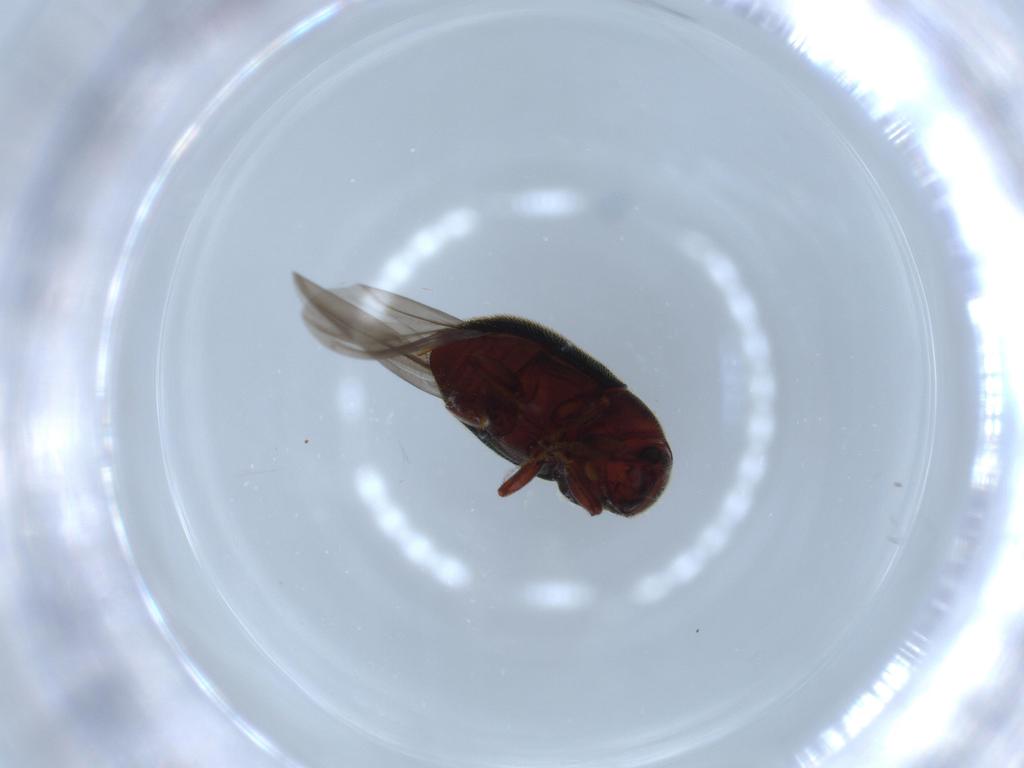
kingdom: Animalia
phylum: Arthropoda
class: Insecta
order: Coleoptera
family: Curculionidae
